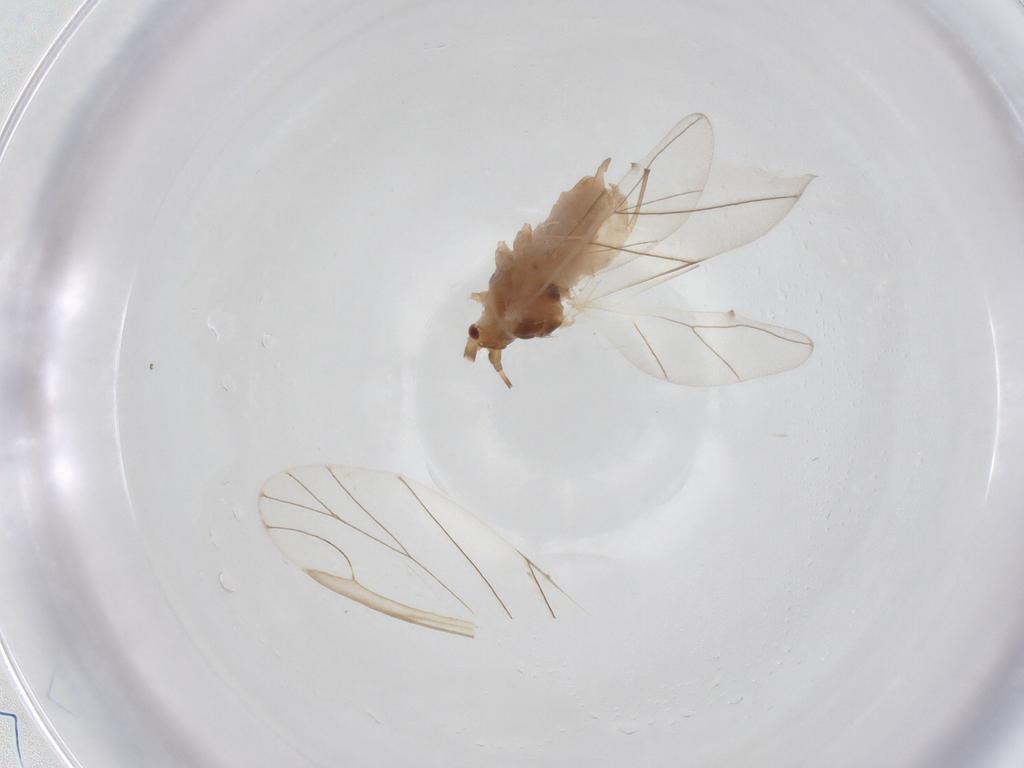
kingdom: Animalia
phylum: Arthropoda
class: Insecta
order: Hemiptera
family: Aphididae
